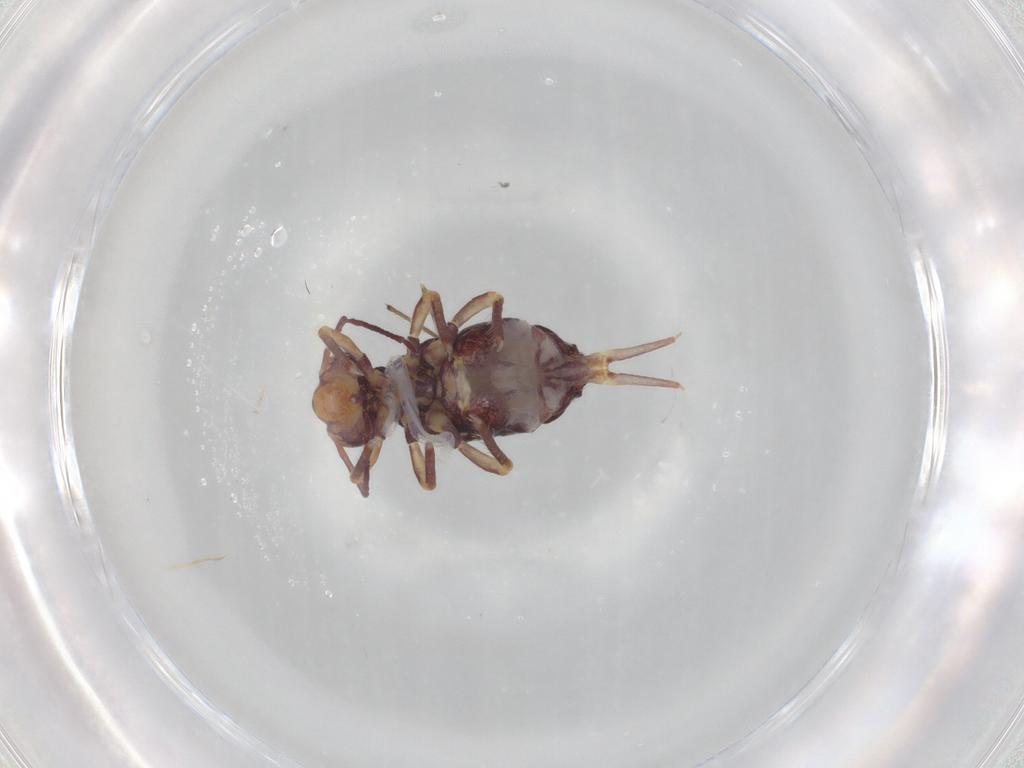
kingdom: Animalia
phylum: Arthropoda
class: Collembola
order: Symphypleona
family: Dicyrtomidae
